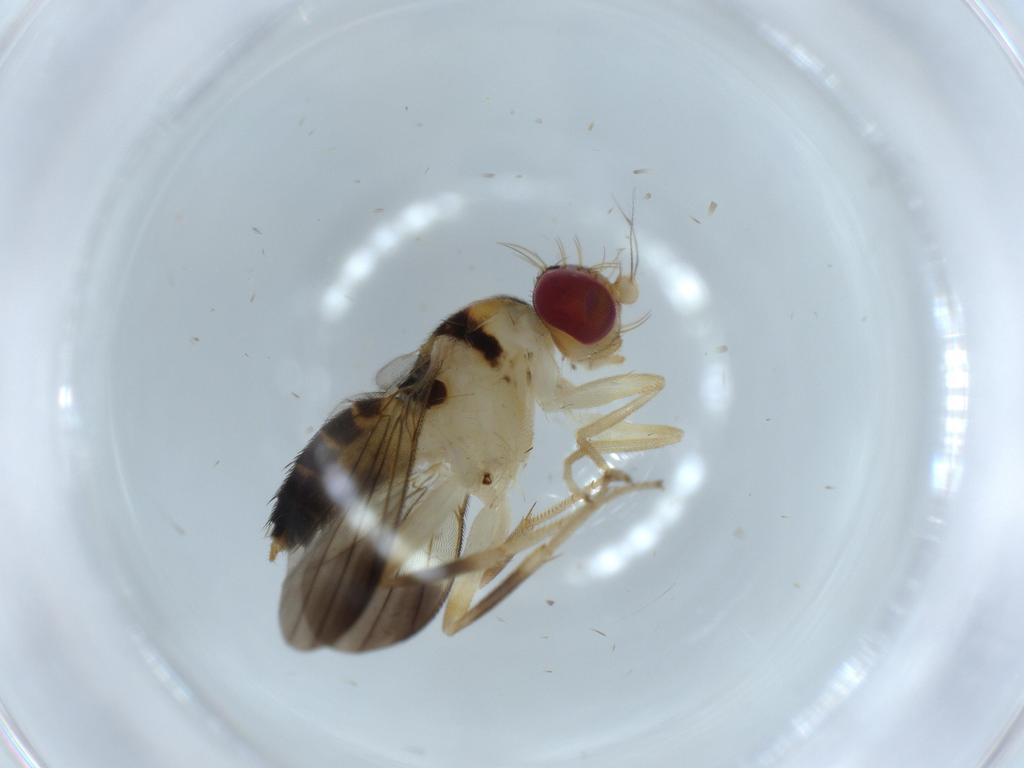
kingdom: Animalia
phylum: Arthropoda
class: Insecta
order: Diptera
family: Clusiidae
